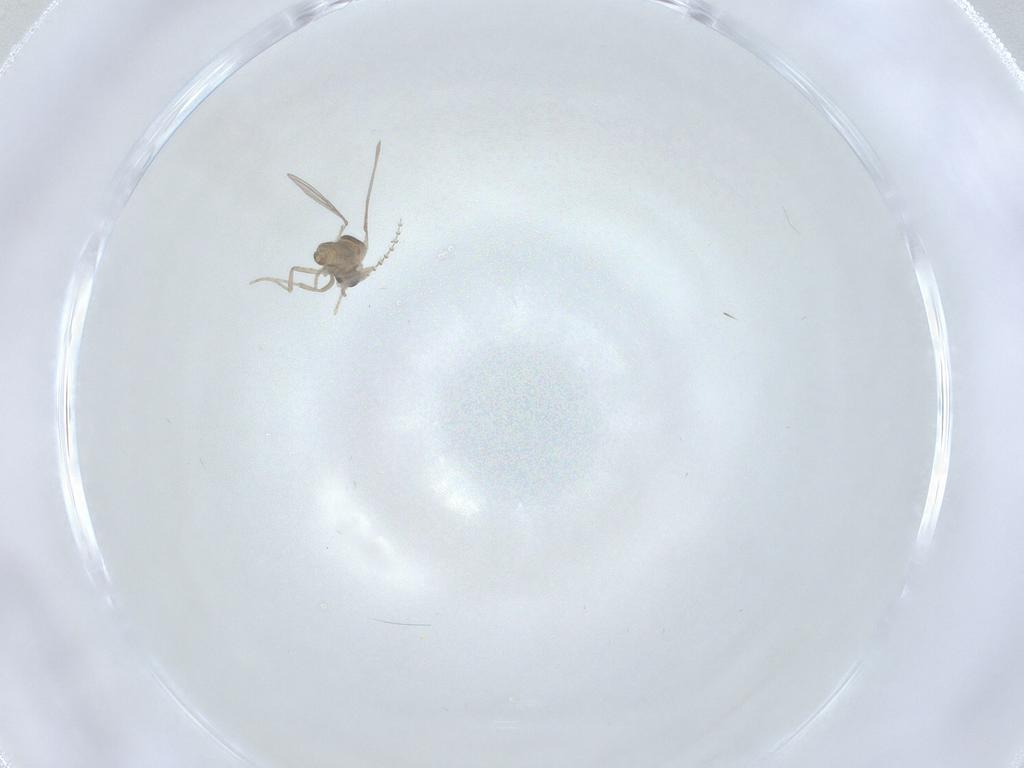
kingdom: Animalia
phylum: Arthropoda
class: Insecta
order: Diptera
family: Cecidomyiidae
